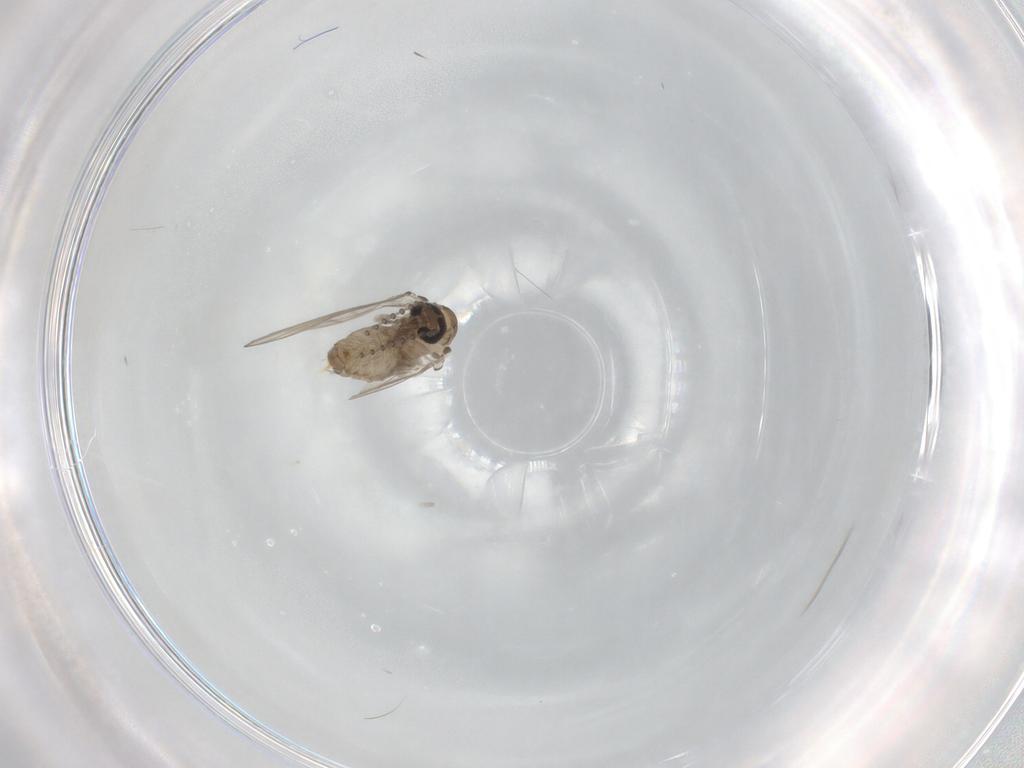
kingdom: Animalia
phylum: Arthropoda
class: Insecta
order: Diptera
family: Psychodidae
